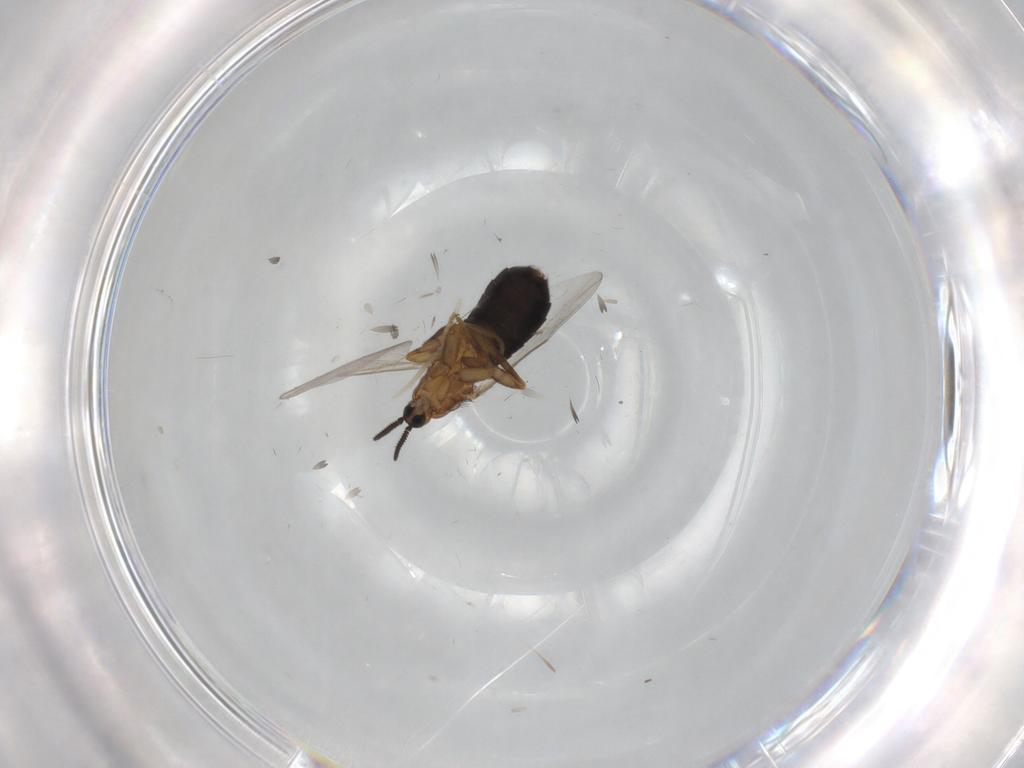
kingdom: Animalia
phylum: Arthropoda
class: Insecta
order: Diptera
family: Scatopsidae
